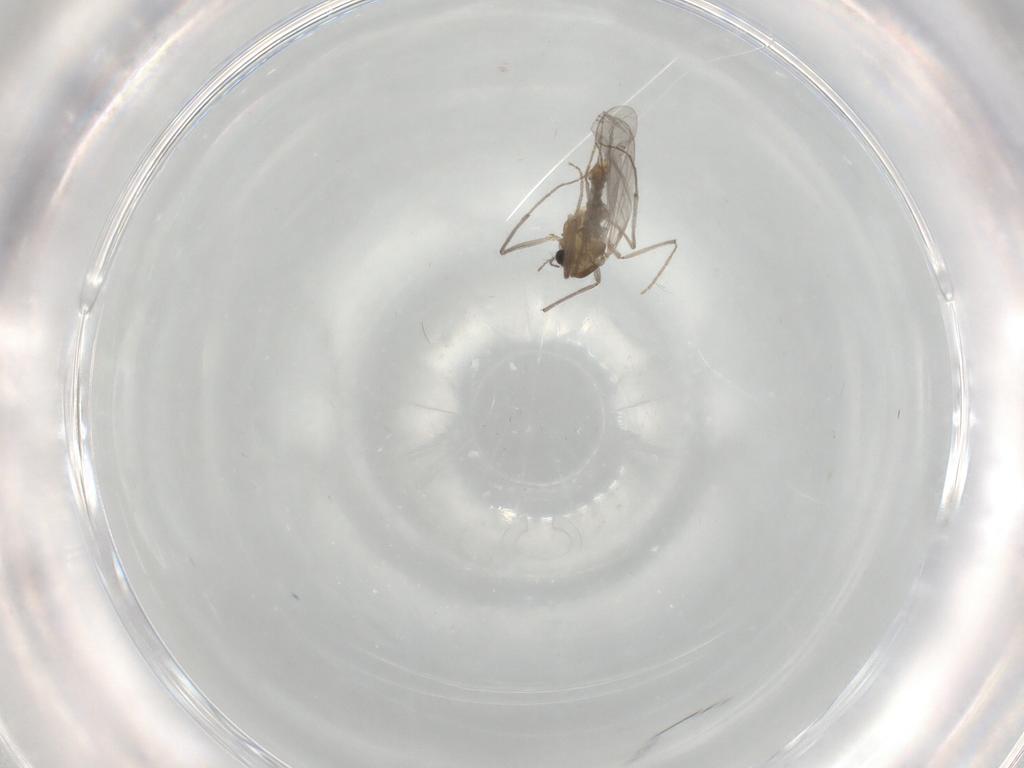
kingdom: Animalia
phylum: Arthropoda
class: Insecta
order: Diptera
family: Chironomidae
